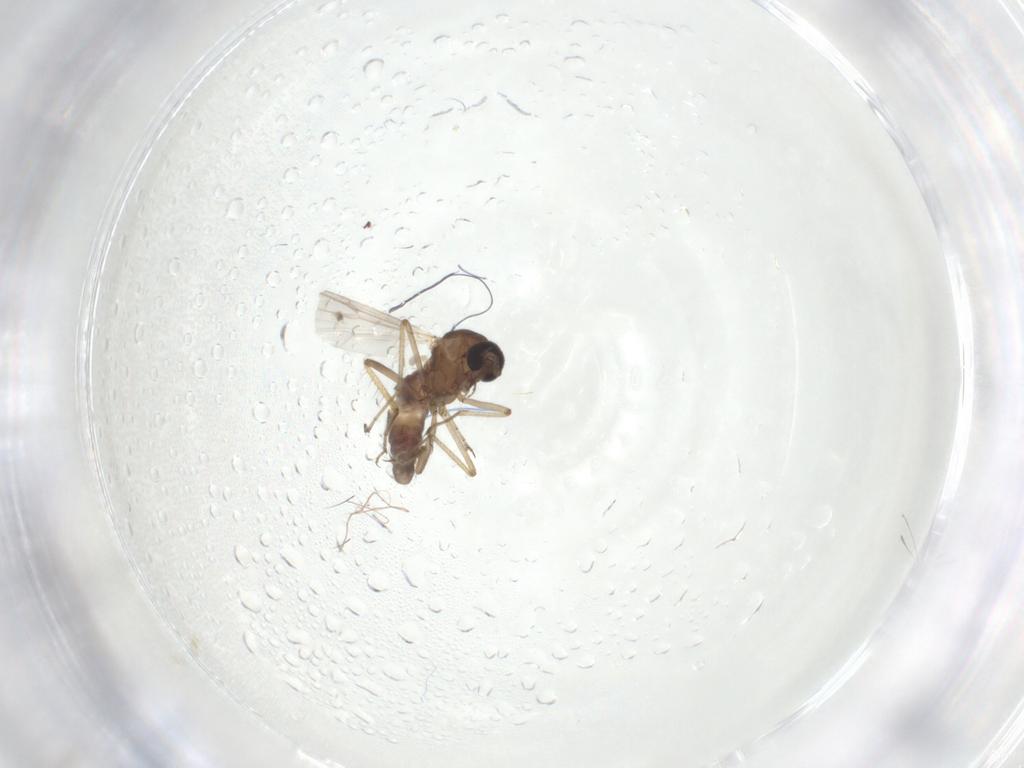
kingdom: Animalia
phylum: Arthropoda
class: Insecta
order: Diptera
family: Ceratopogonidae
